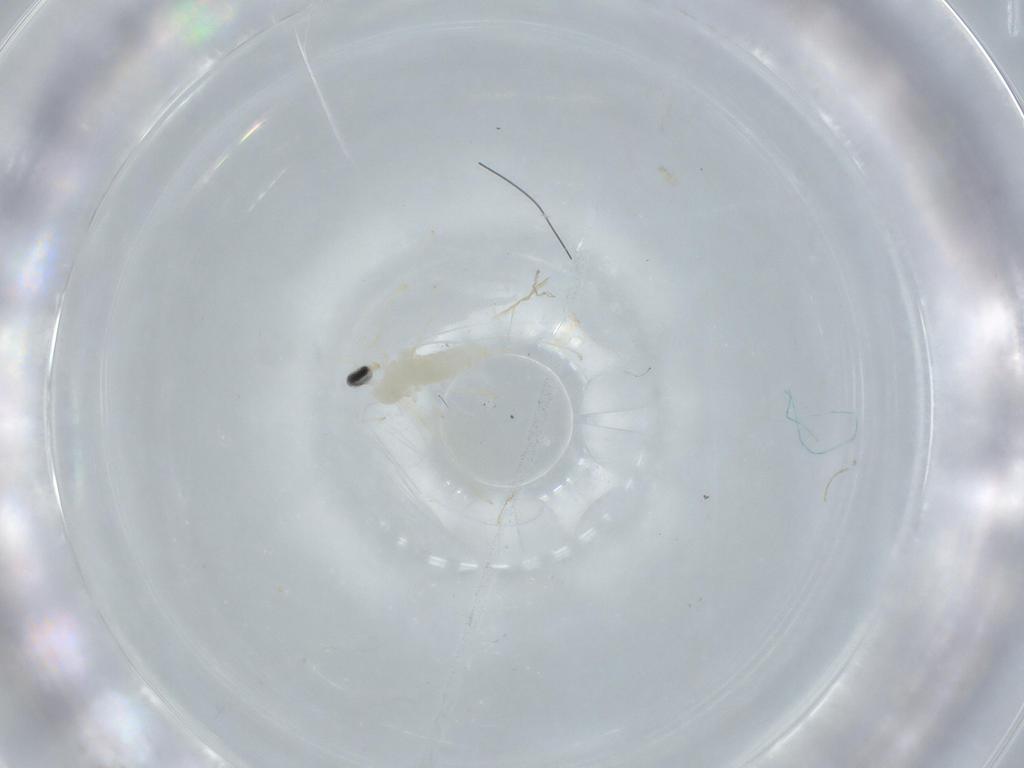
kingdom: Animalia
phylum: Arthropoda
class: Insecta
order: Diptera
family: Cecidomyiidae
